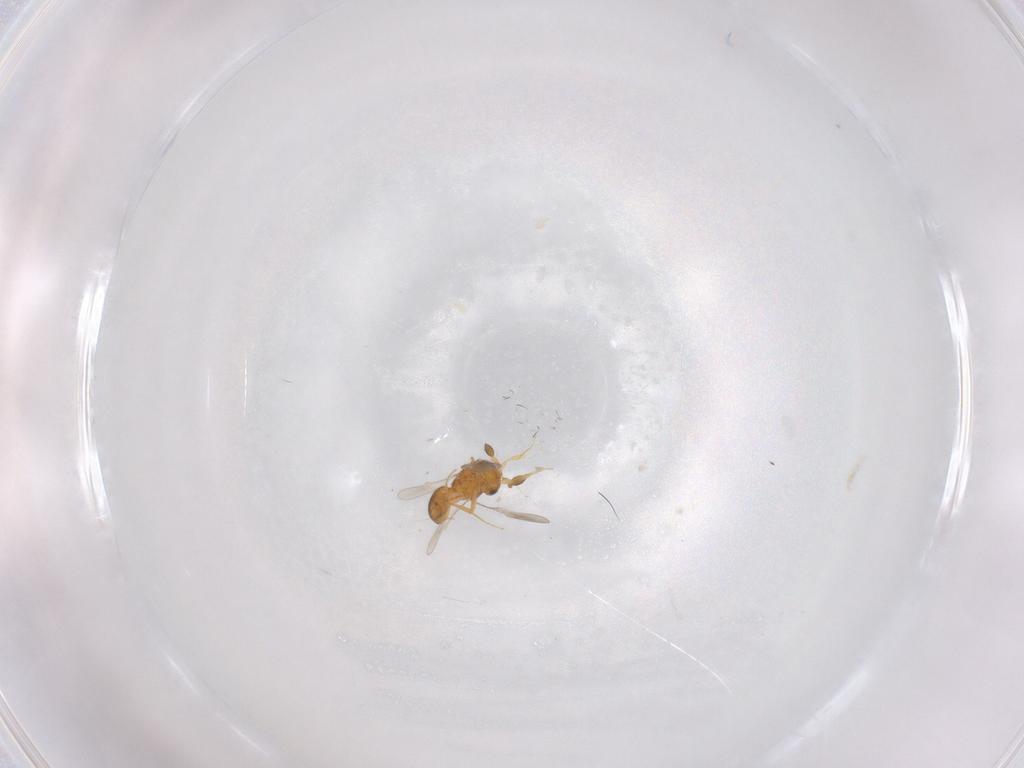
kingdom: Animalia
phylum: Arthropoda
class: Insecta
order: Hymenoptera
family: Scelionidae
